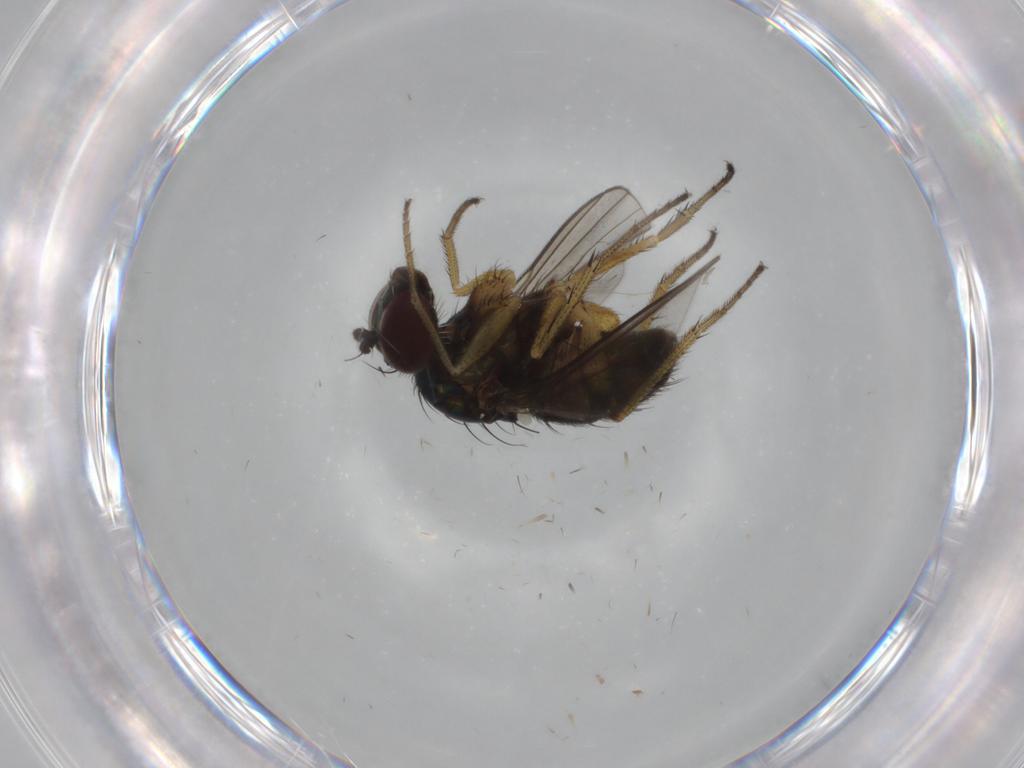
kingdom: Animalia
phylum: Arthropoda
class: Insecta
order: Diptera
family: Dolichopodidae
